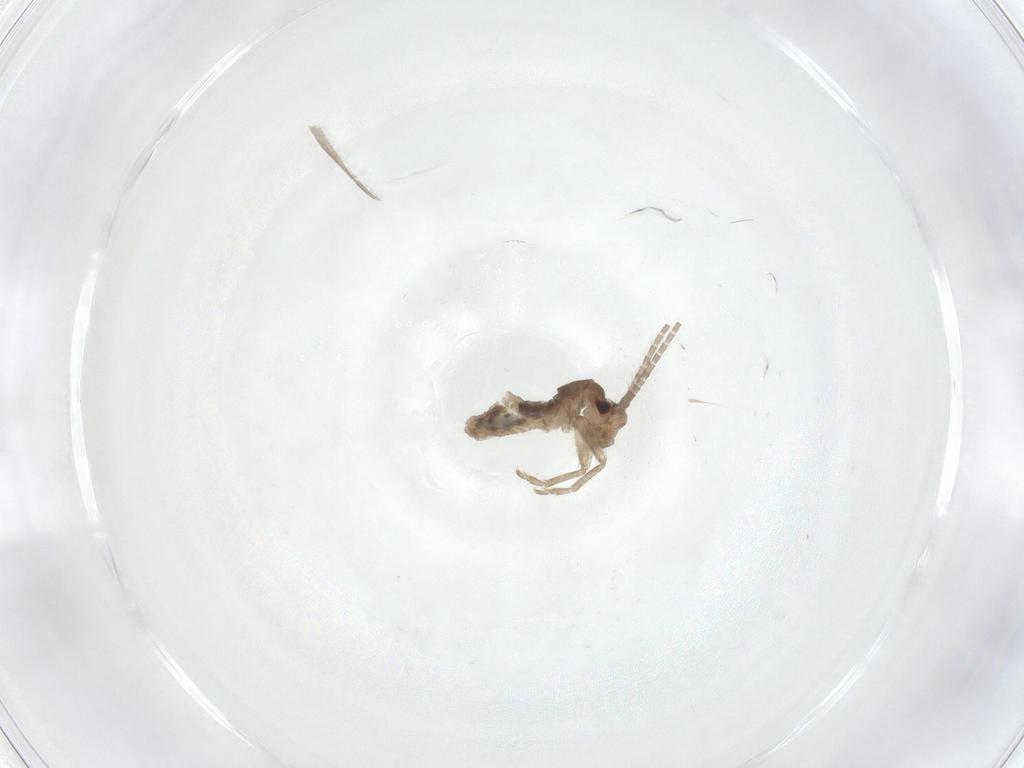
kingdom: Animalia
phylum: Arthropoda
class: Insecta
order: Orthoptera
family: Mogoplistidae
